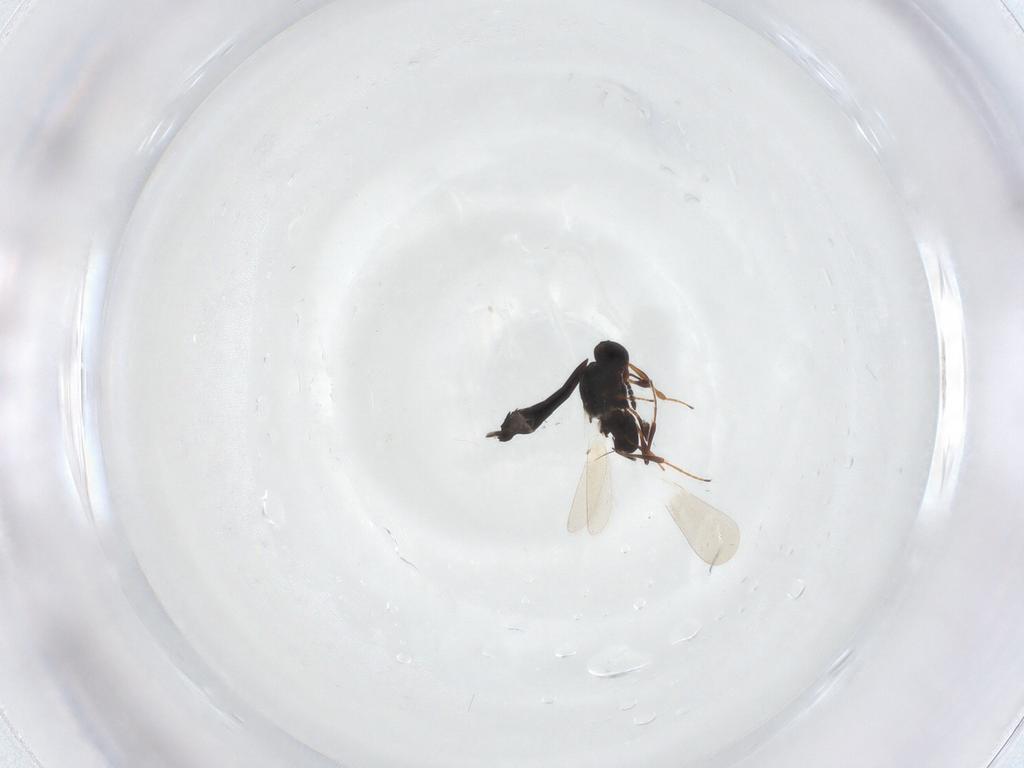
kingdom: Animalia
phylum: Arthropoda
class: Insecta
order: Hymenoptera
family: Platygastridae
